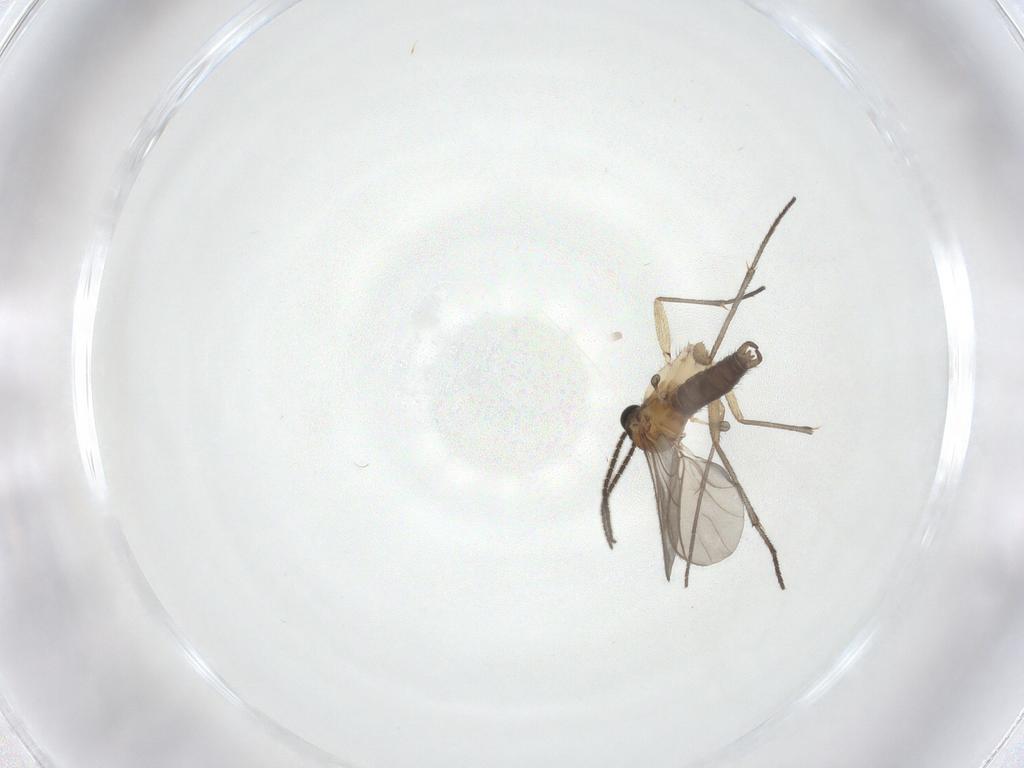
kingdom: Animalia
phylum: Arthropoda
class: Insecta
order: Diptera
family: Sciaridae
